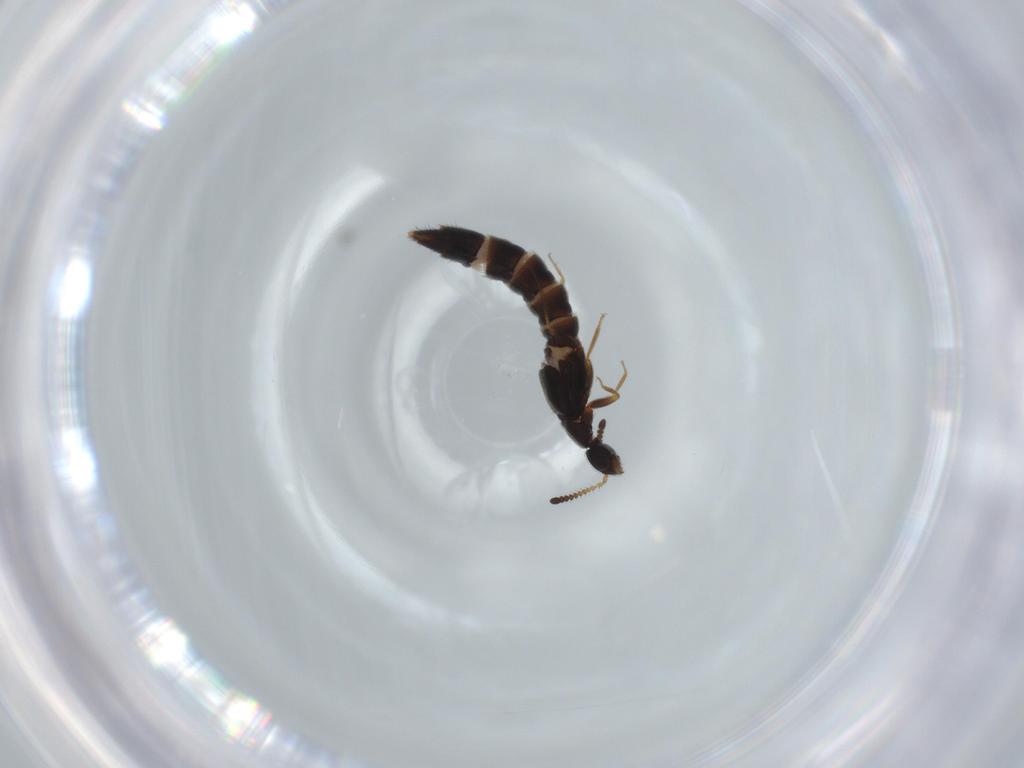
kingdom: Animalia
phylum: Arthropoda
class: Insecta
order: Coleoptera
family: Staphylinidae
